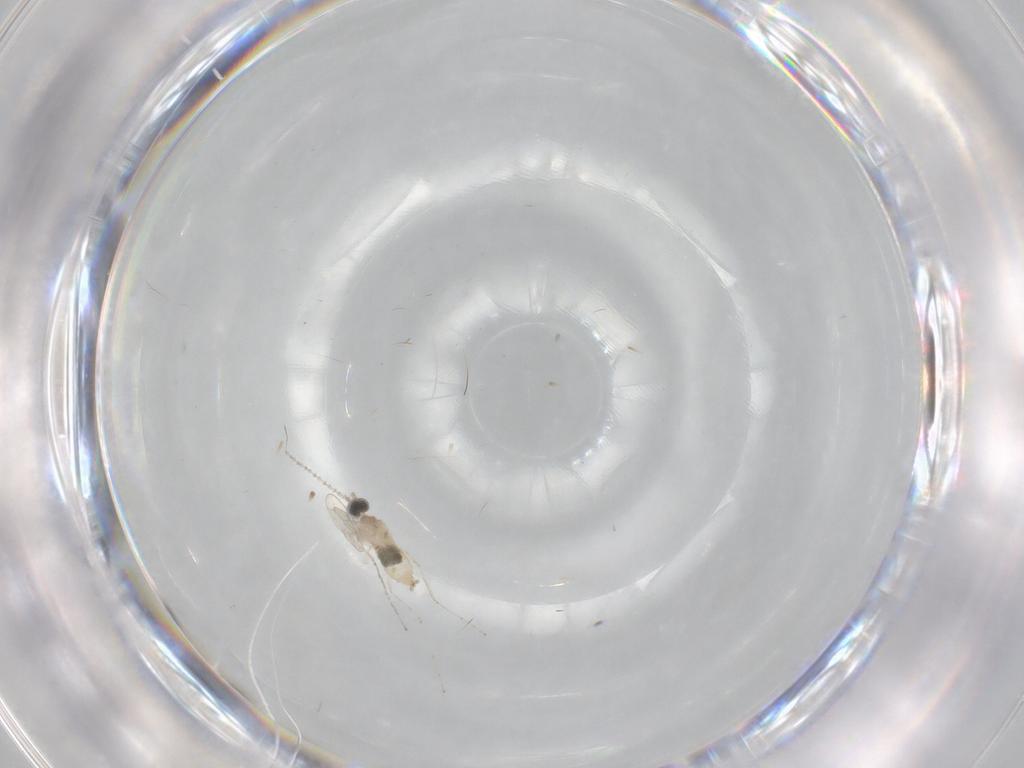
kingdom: Animalia
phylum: Arthropoda
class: Insecta
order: Diptera
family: Cecidomyiidae
